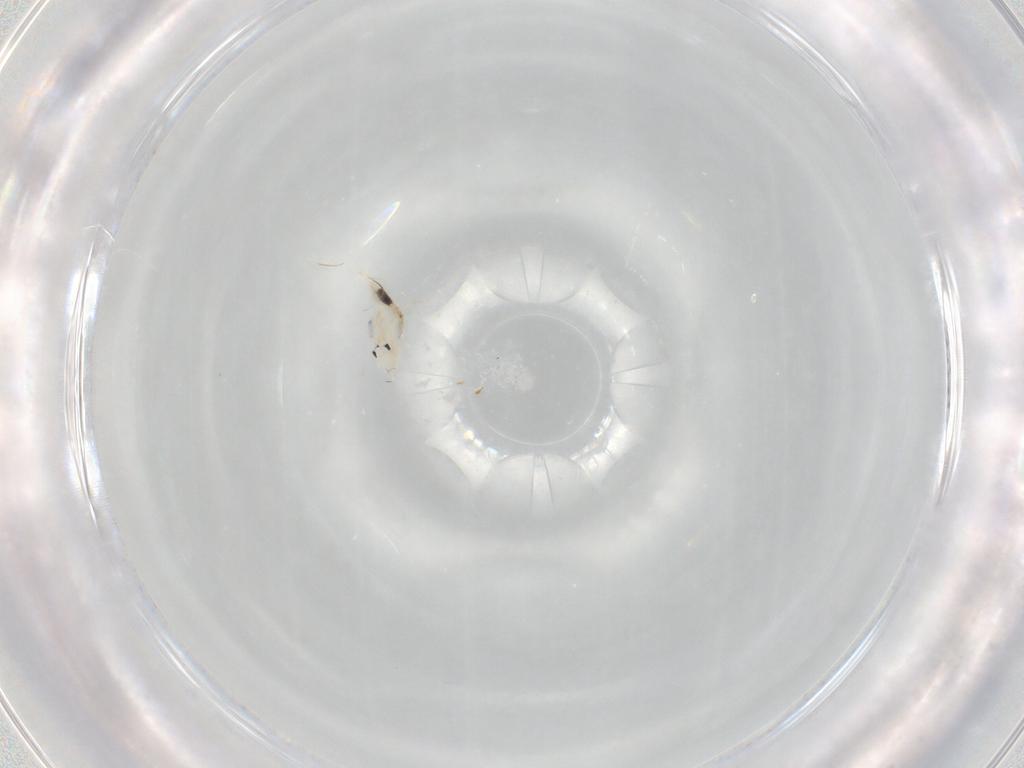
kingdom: Animalia
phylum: Arthropoda
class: Collembola
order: Entomobryomorpha
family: Entomobryidae
